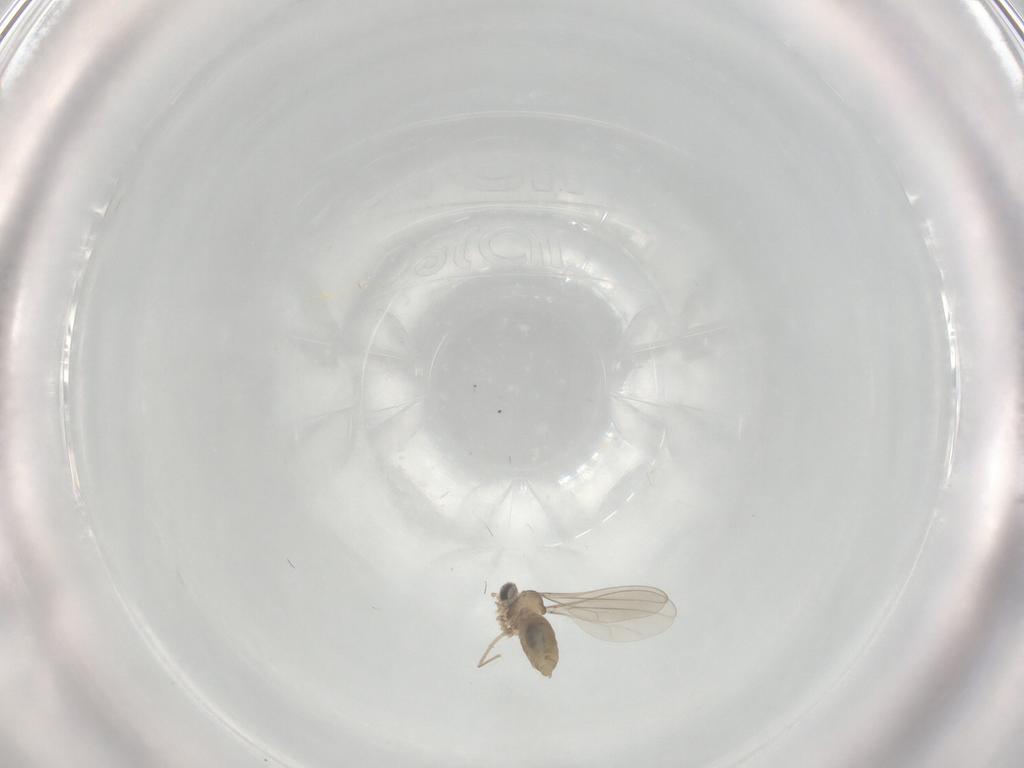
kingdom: Animalia
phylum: Arthropoda
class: Insecta
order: Diptera
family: Cecidomyiidae
